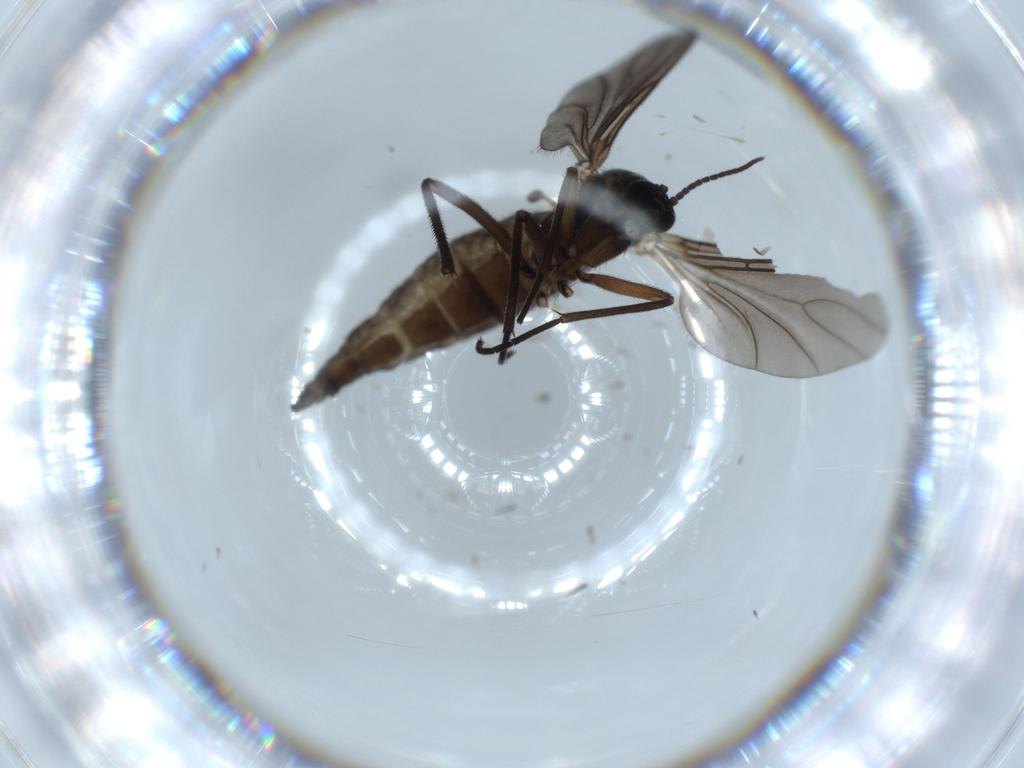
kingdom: Animalia
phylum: Arthropoda
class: Insecta
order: Diptera
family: Sciaridae
